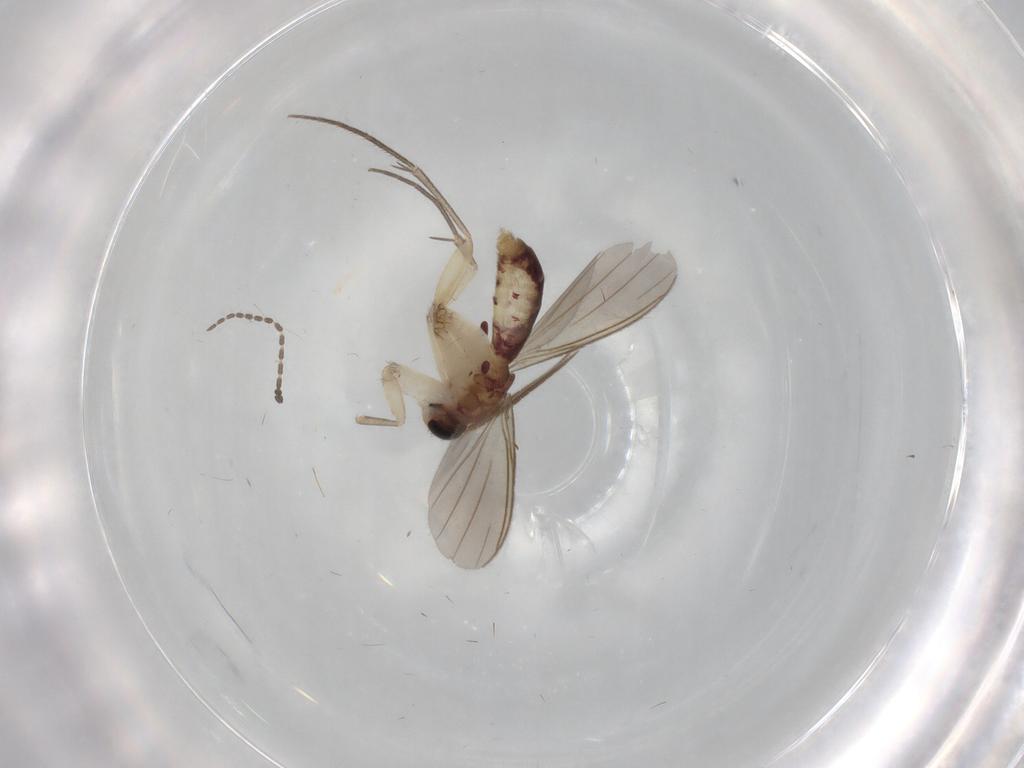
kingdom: Animalia
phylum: Arthropoda
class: Insecta
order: Diptera
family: Mycetophilidae
